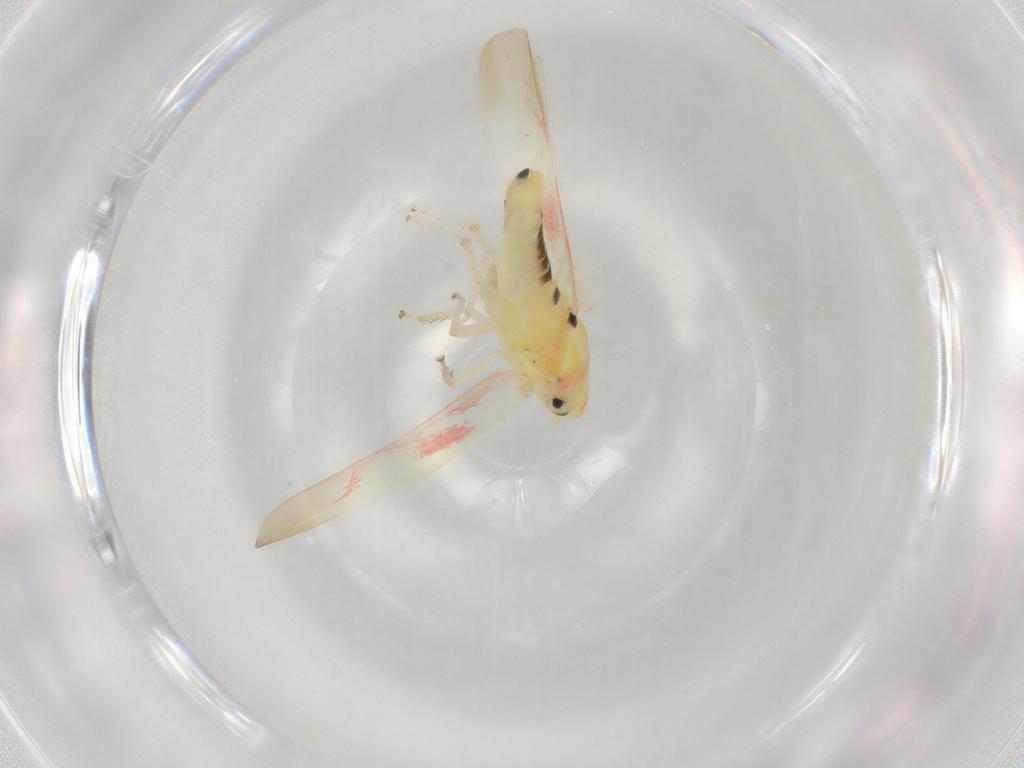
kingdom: Animalia
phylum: Arthropoda
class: Insecta
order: Hemiptera
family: Cicadellidae
